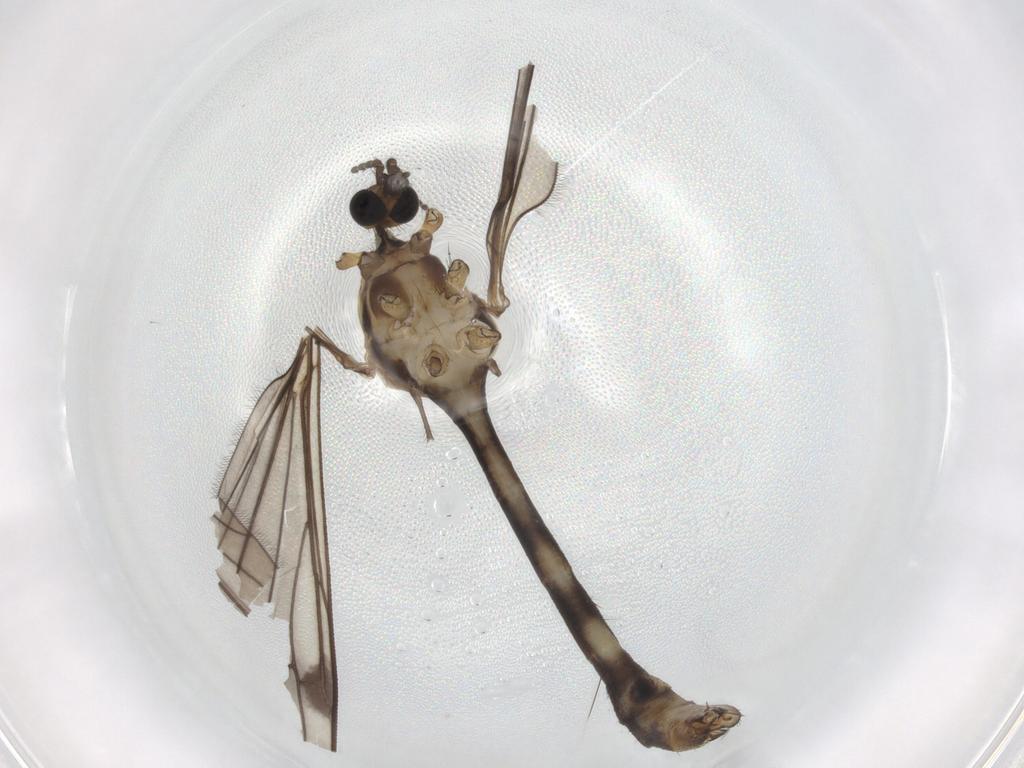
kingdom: Animalia
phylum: Arthropoda
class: Insecta
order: Diptera
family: Limoniidae
